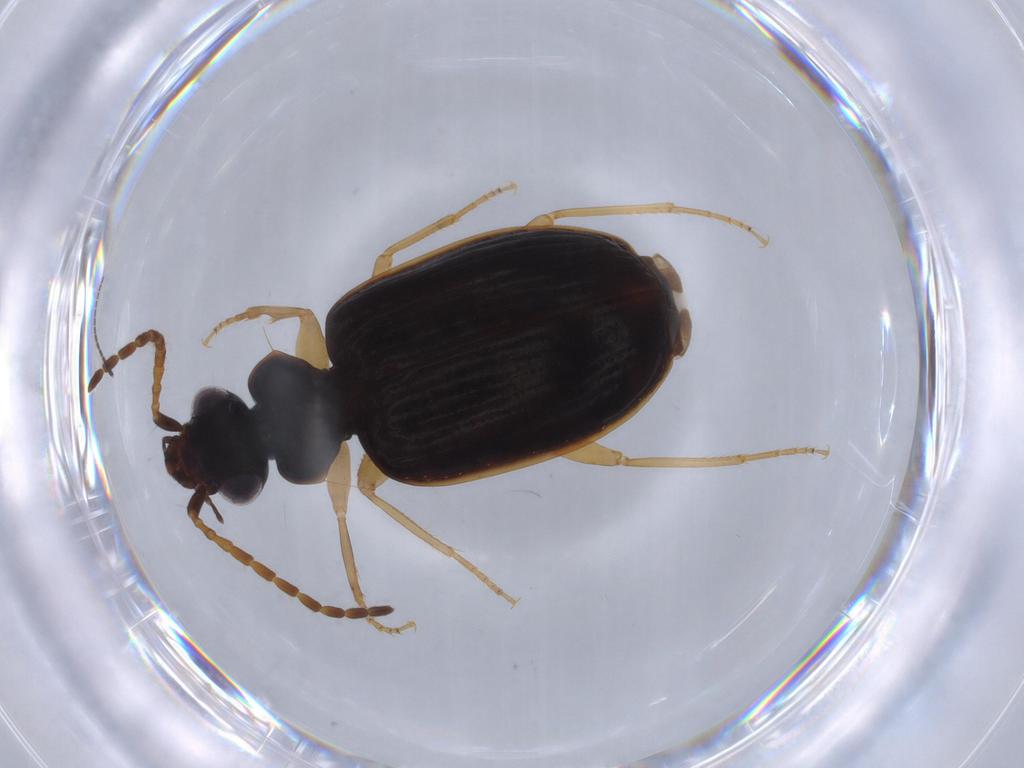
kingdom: Animalia
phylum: Arthropoda
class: Insecta
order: Coleoptera
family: Carabidae
